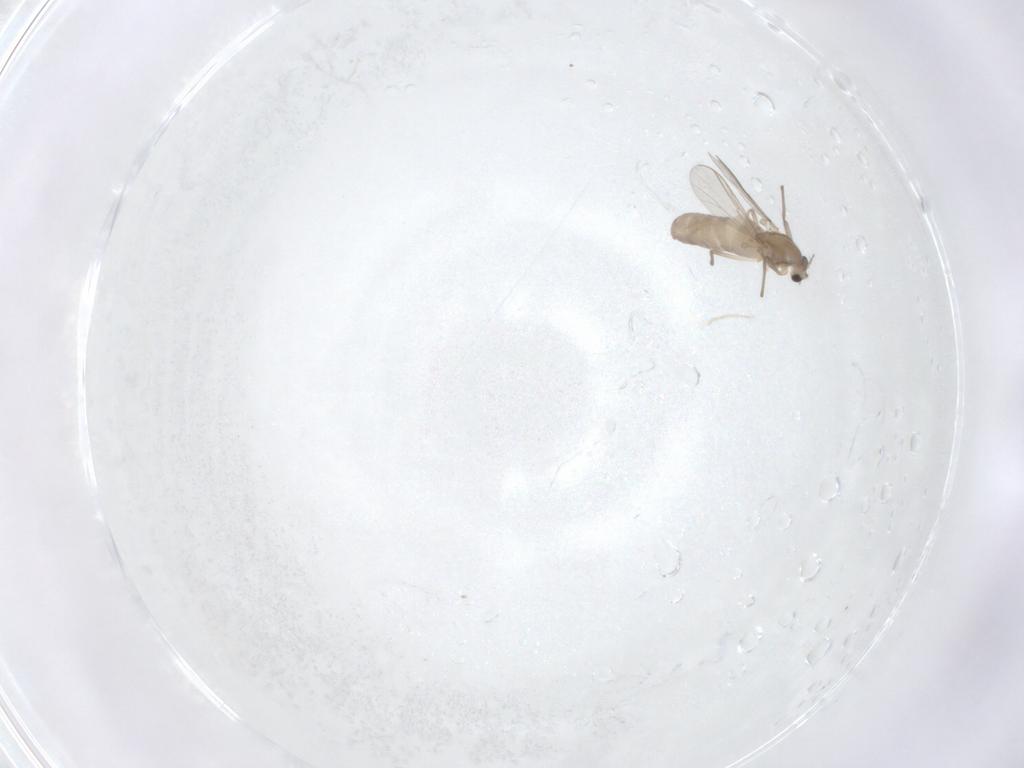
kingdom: Animalia
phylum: Arthropoda
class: Insecta
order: Diptera
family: Chironomidae
